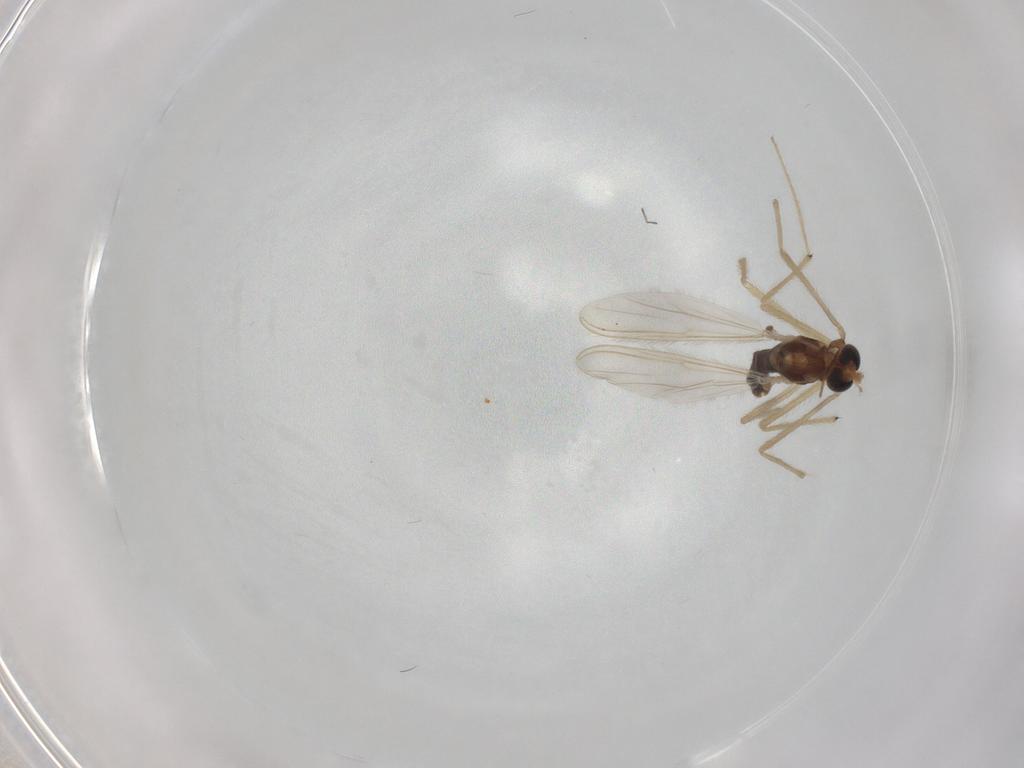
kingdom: Animalia
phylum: Arthropoda
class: Insecta
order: Diptera
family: Chironomidae
